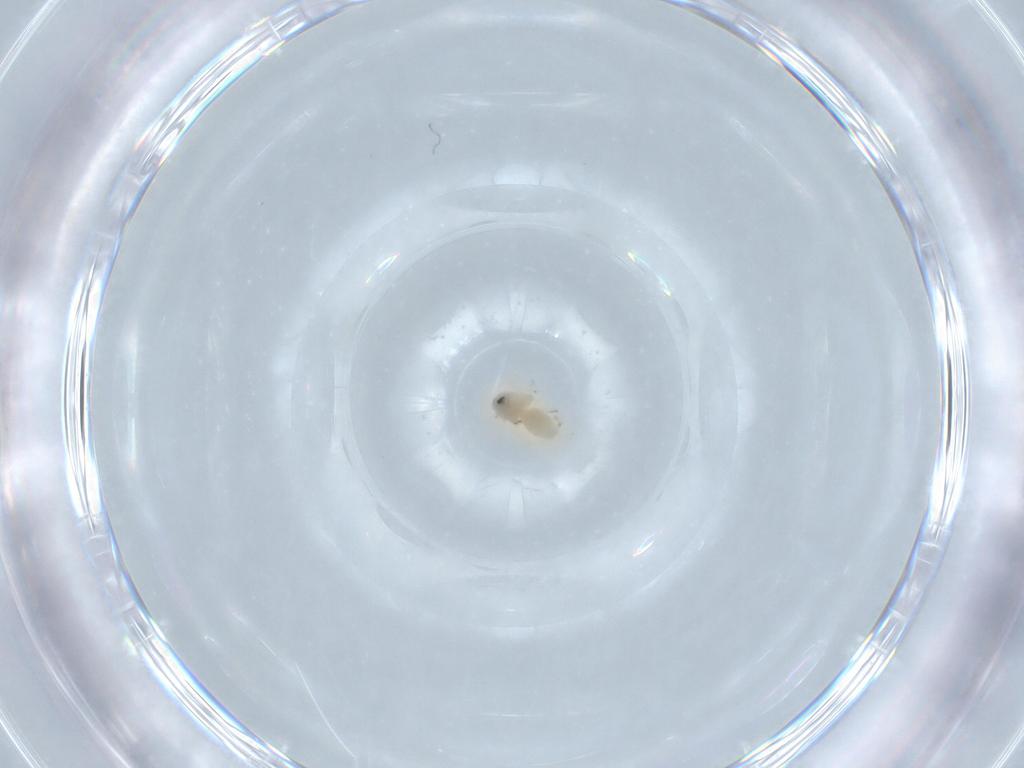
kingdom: Animalia
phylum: Arthropoda
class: Insecta
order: Hemiptera
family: Aleyrodidae
